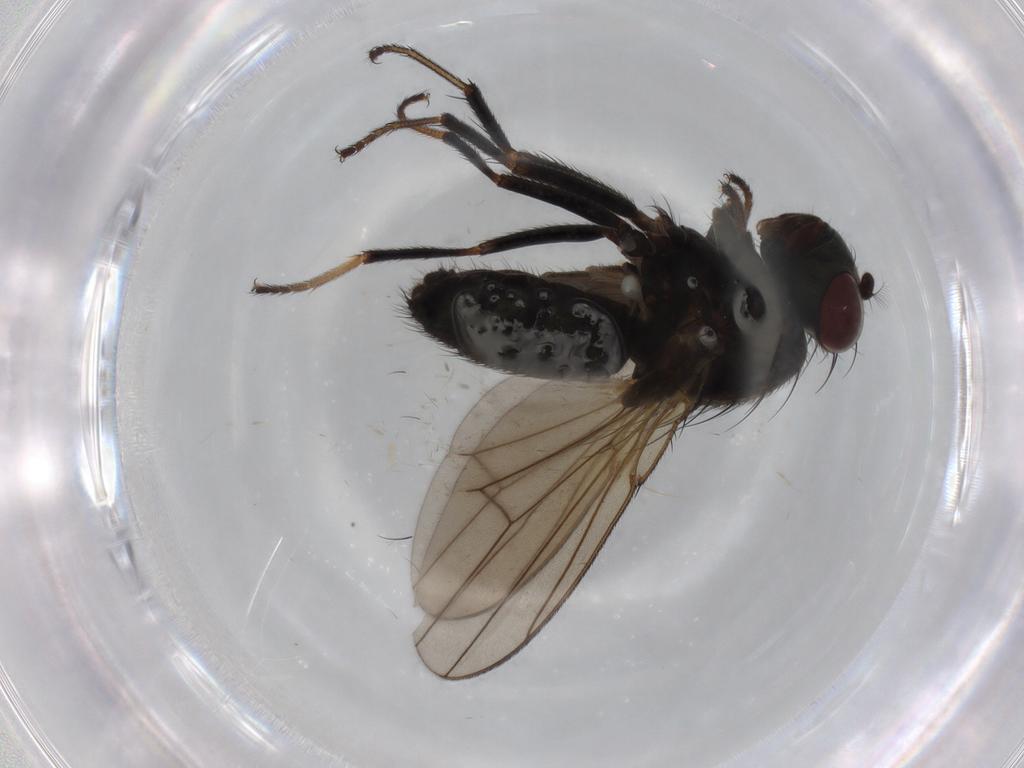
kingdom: Animalia
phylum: Arthropoda
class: Insecta
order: Diptera
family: Ephydridae
